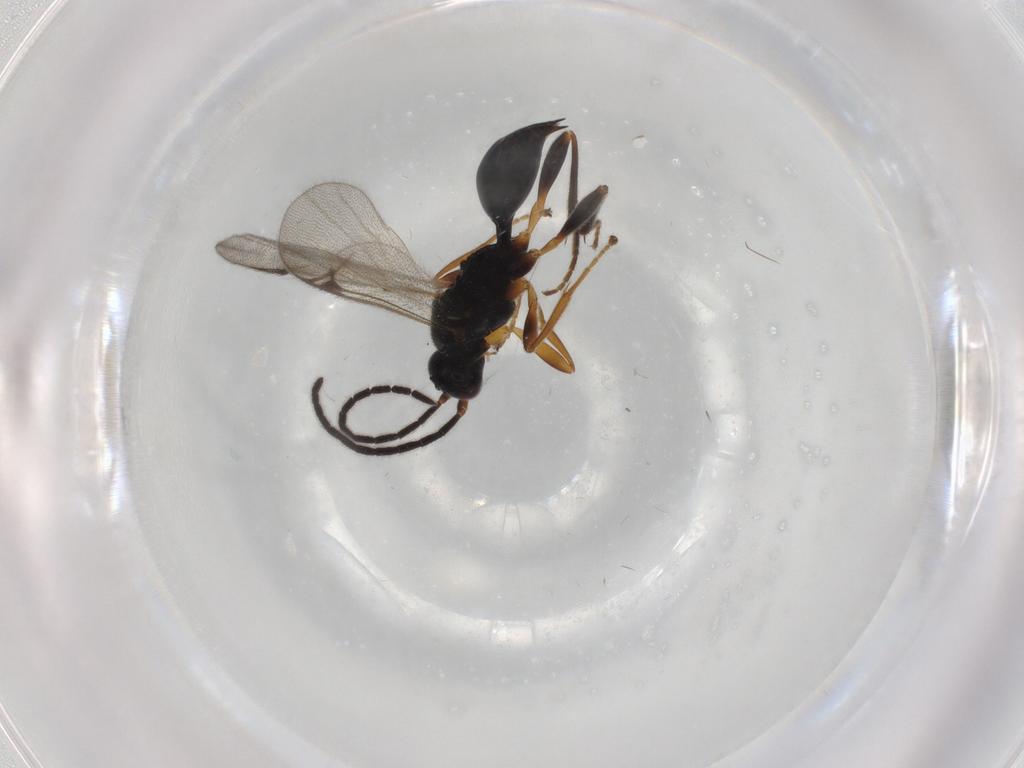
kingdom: Animalia
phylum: Arthropoda
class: Insecta
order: Hymenoptera
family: Proctotrupidae
